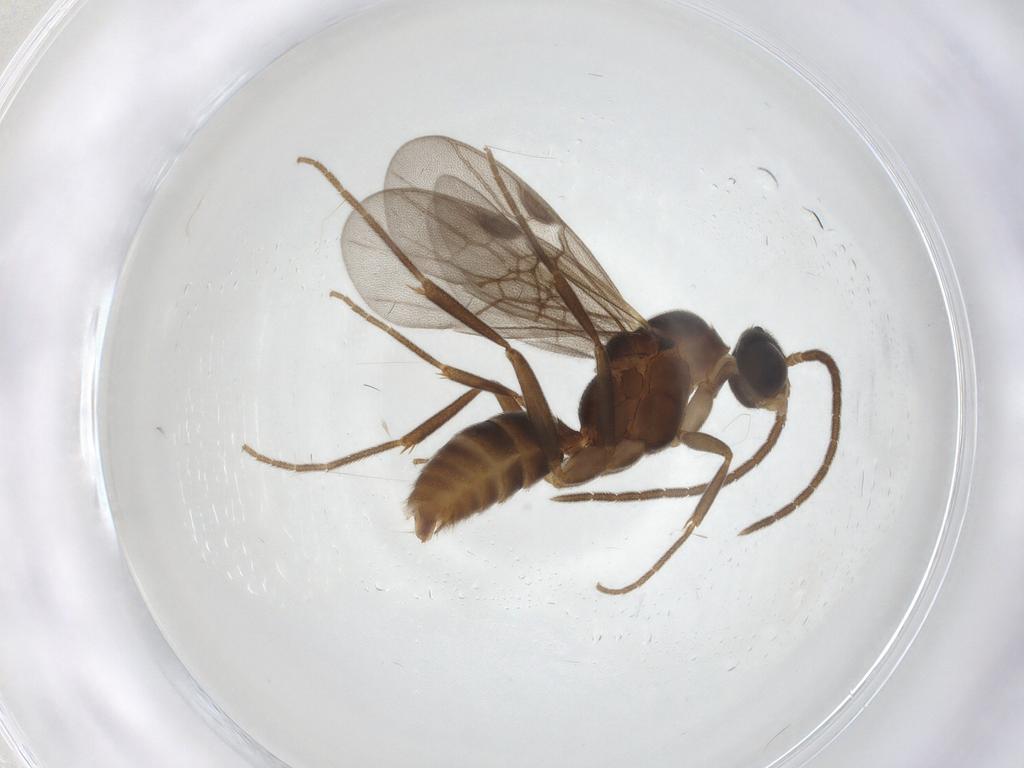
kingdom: Animalia
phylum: Arthropoda
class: Insecta
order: Hymenoptera
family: Formicidae
